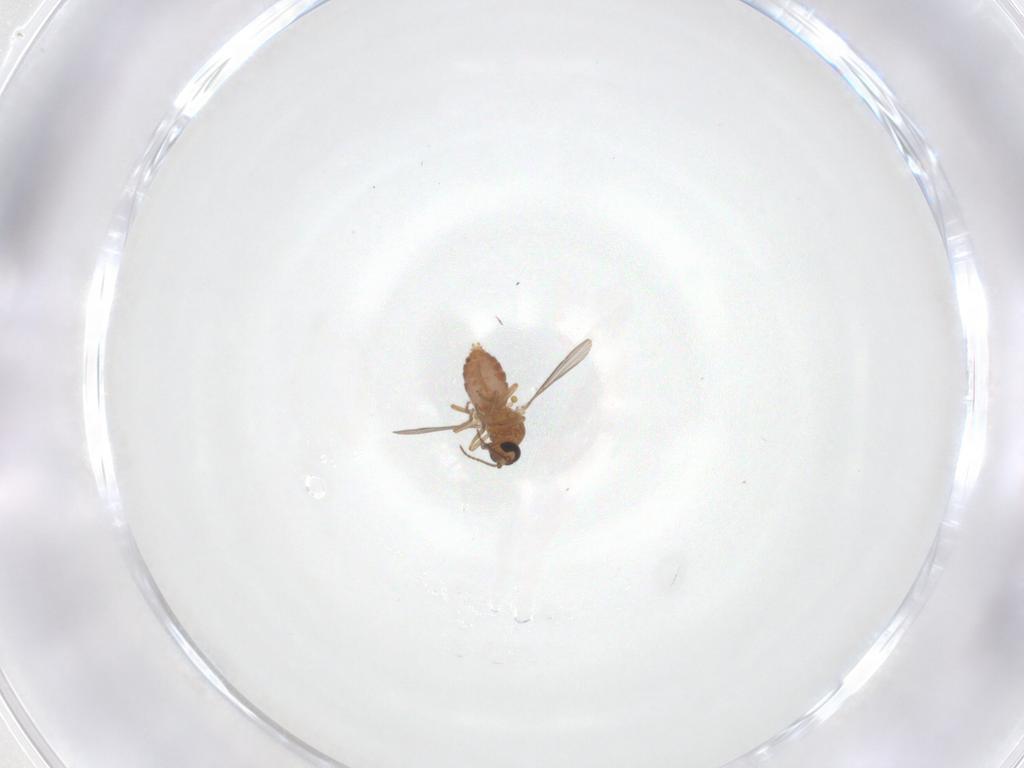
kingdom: Animalia
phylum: Arthropoda
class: Insecta
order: Diptera
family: Ceratopogonidae
